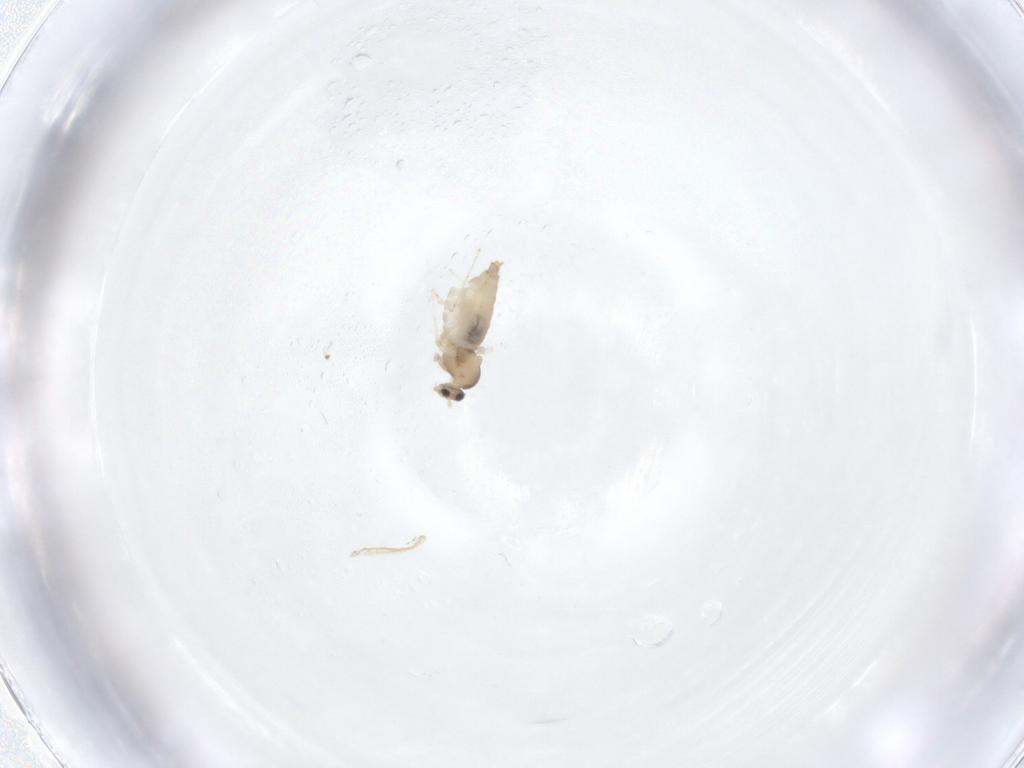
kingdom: Animalia
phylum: Arthropoda
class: Insecta
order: Diptera
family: Cecidomyiidae
